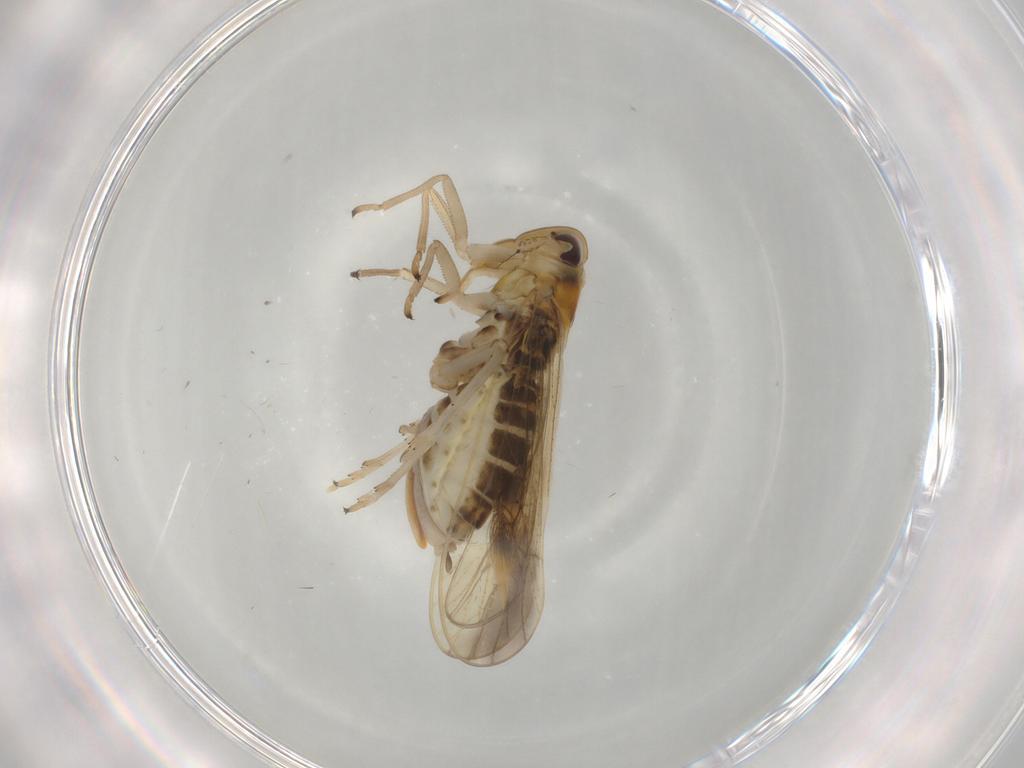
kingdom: Animalia
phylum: Arthropoda
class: Insecta
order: Hemiptera
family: Delphacidae
